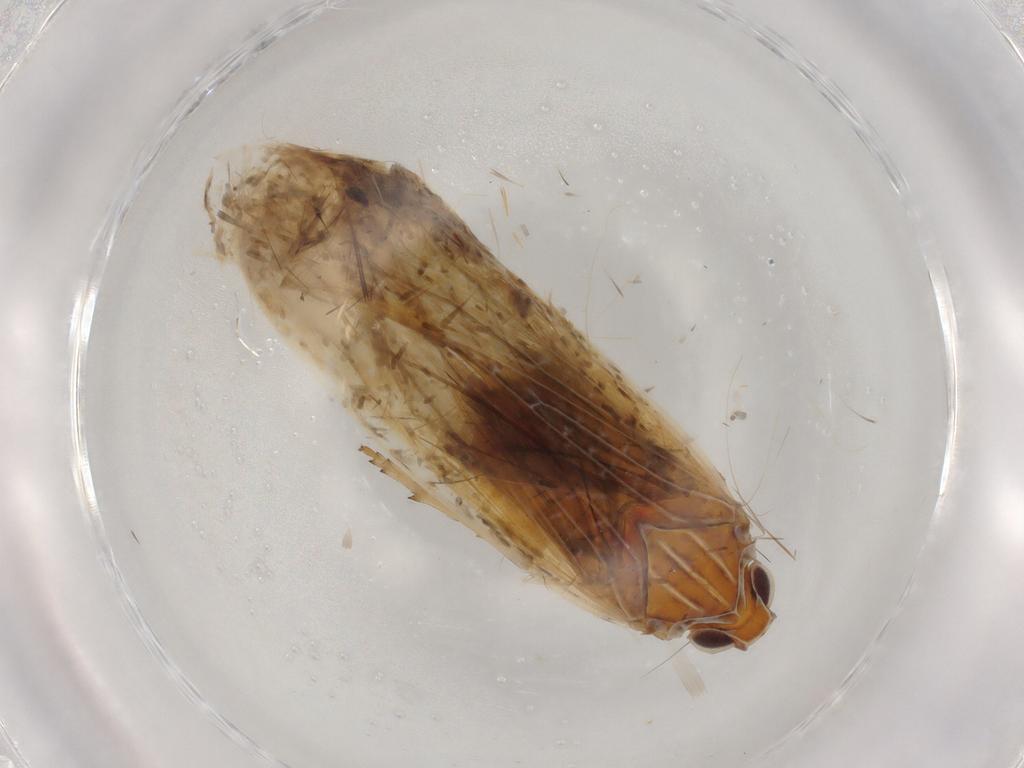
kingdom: Animalia
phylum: Arthropoda
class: Insecta
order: Hemiptera
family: Achilidae
